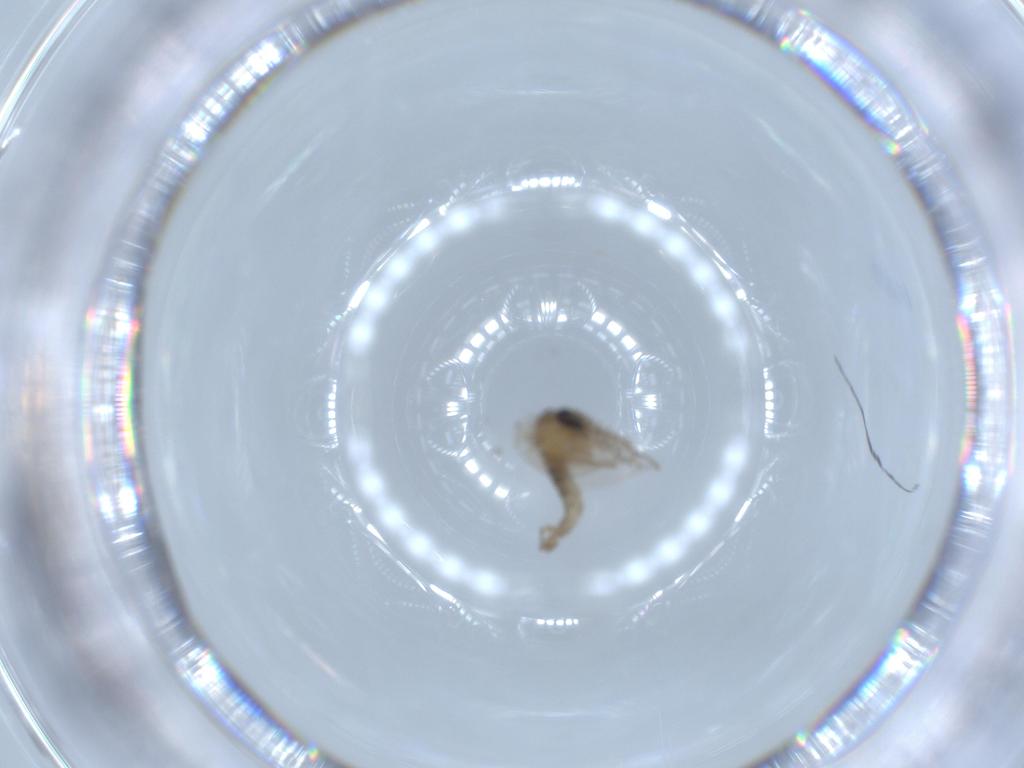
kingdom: Animalia
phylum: Arthropoda
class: Insecta
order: Diptera
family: Psychodidae
